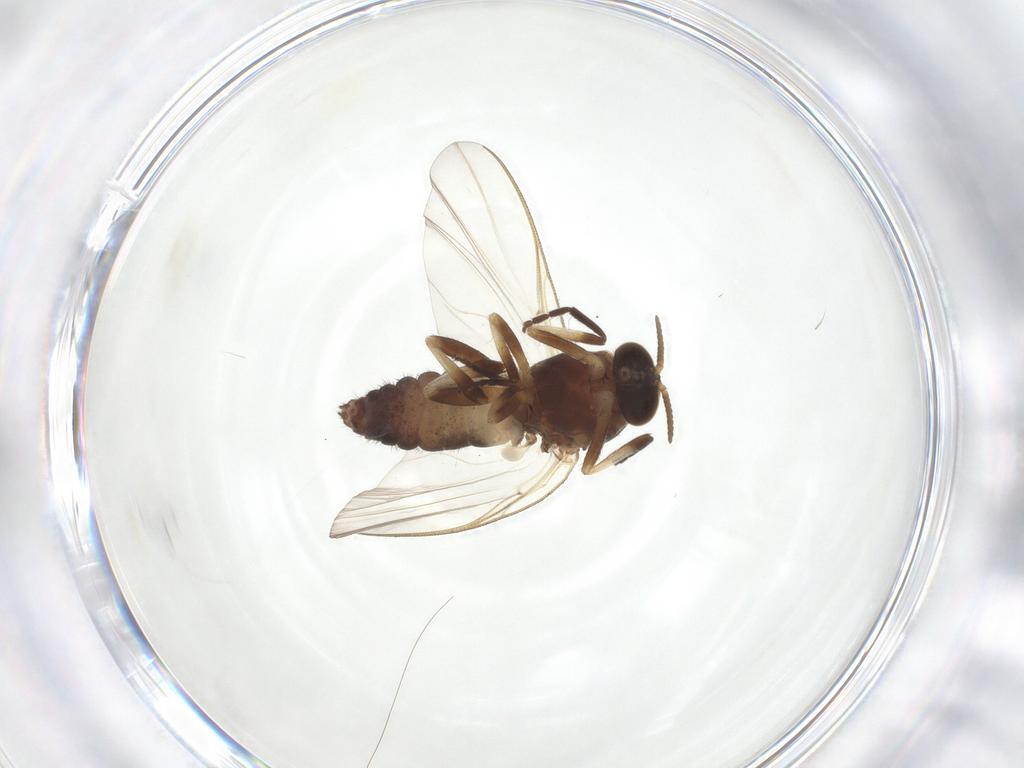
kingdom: Animalia
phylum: Arthropoda
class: Insecta
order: Diptera
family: Simuliidae
